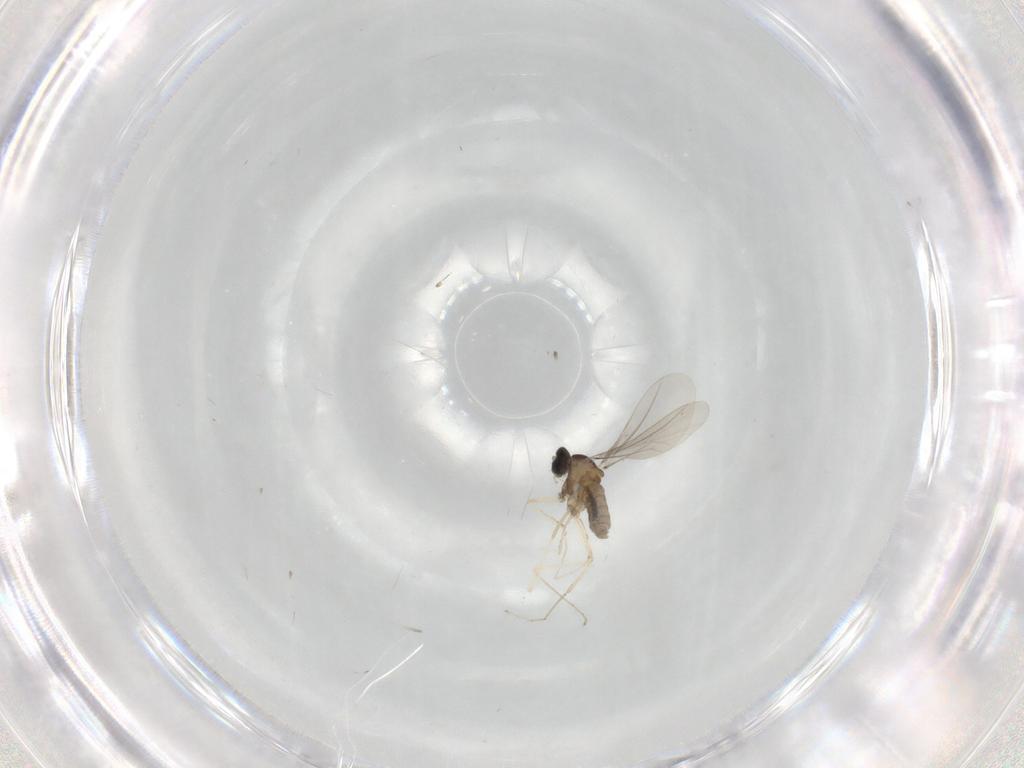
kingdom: Animalia
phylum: Arthropoda
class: Insecta
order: Diptera
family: Cecidomyiidae
